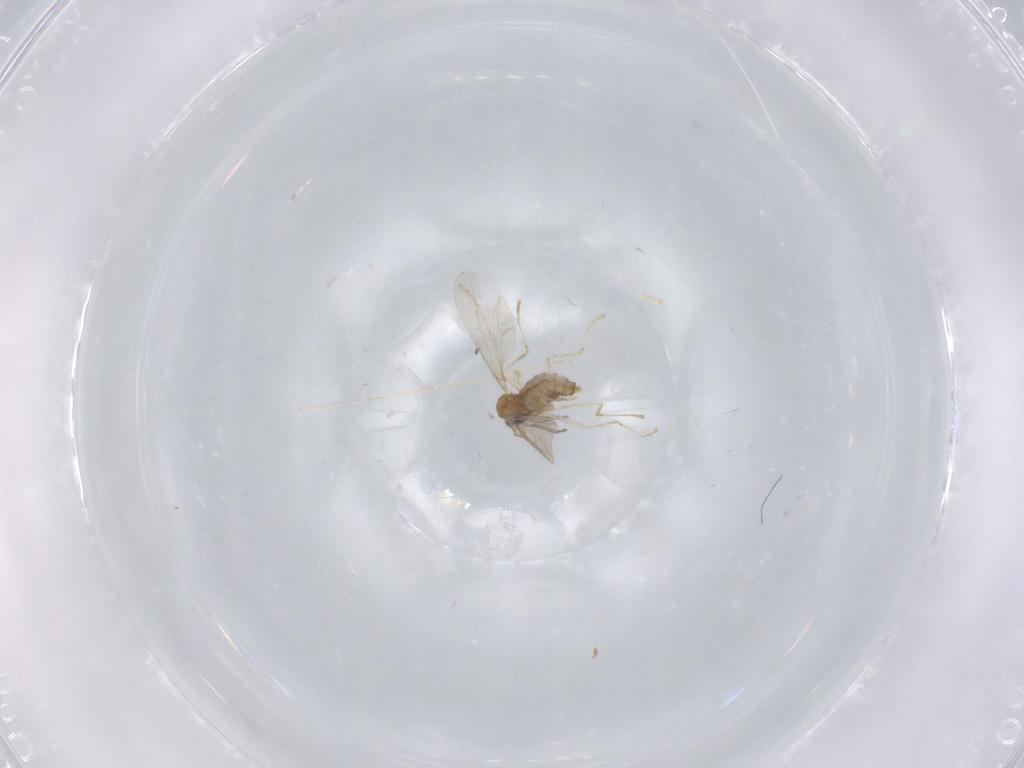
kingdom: Animalia
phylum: Arthropoda
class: Insecta
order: Diptera
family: Cecidomyiidae
